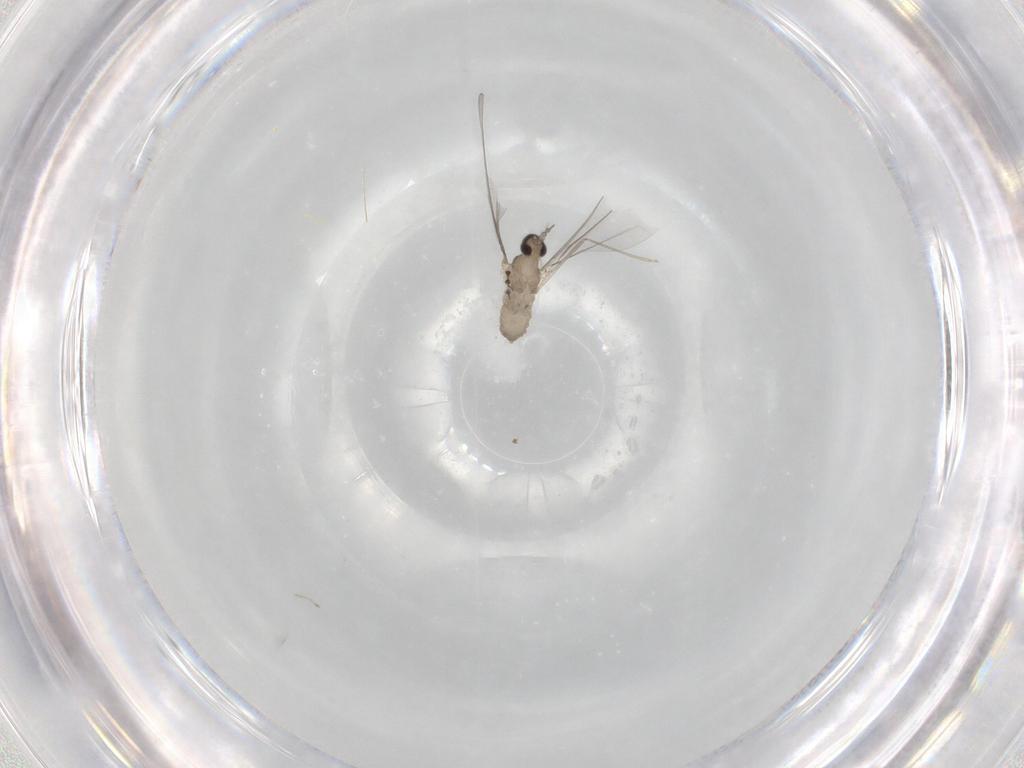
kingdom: Animalia
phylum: Arthropoda
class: Insecta
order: Diptera
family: Cecidomyiidae
